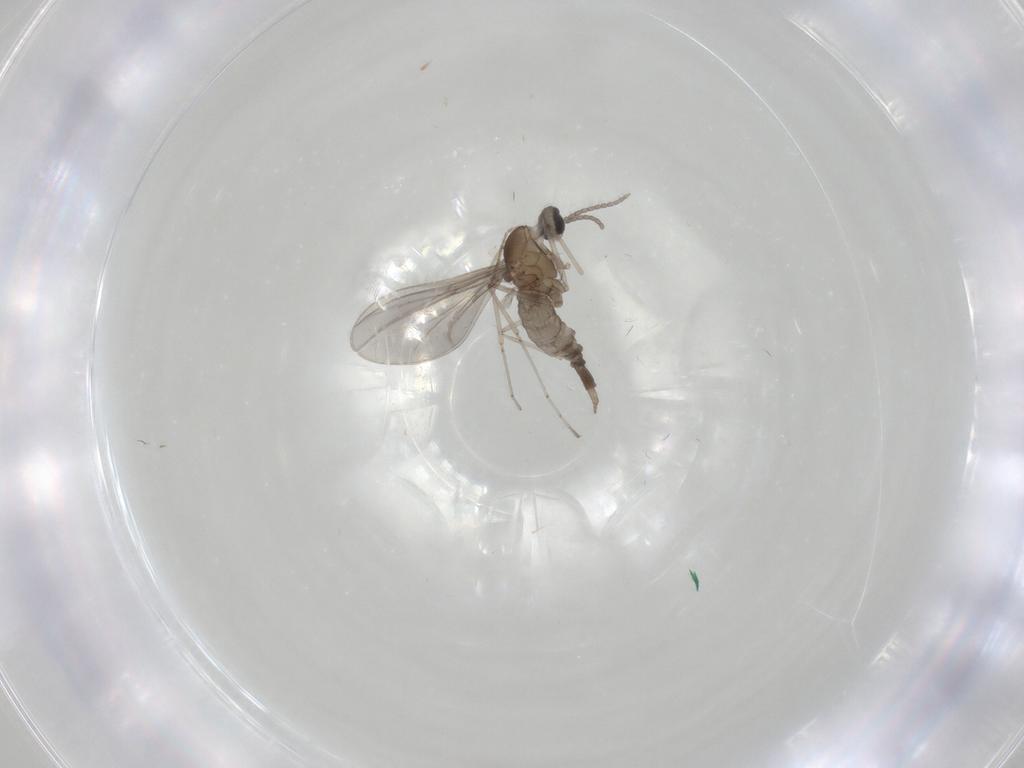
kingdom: Animalia
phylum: Arthropoda
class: Insecta
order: Diptera
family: Cecidomyiidae
